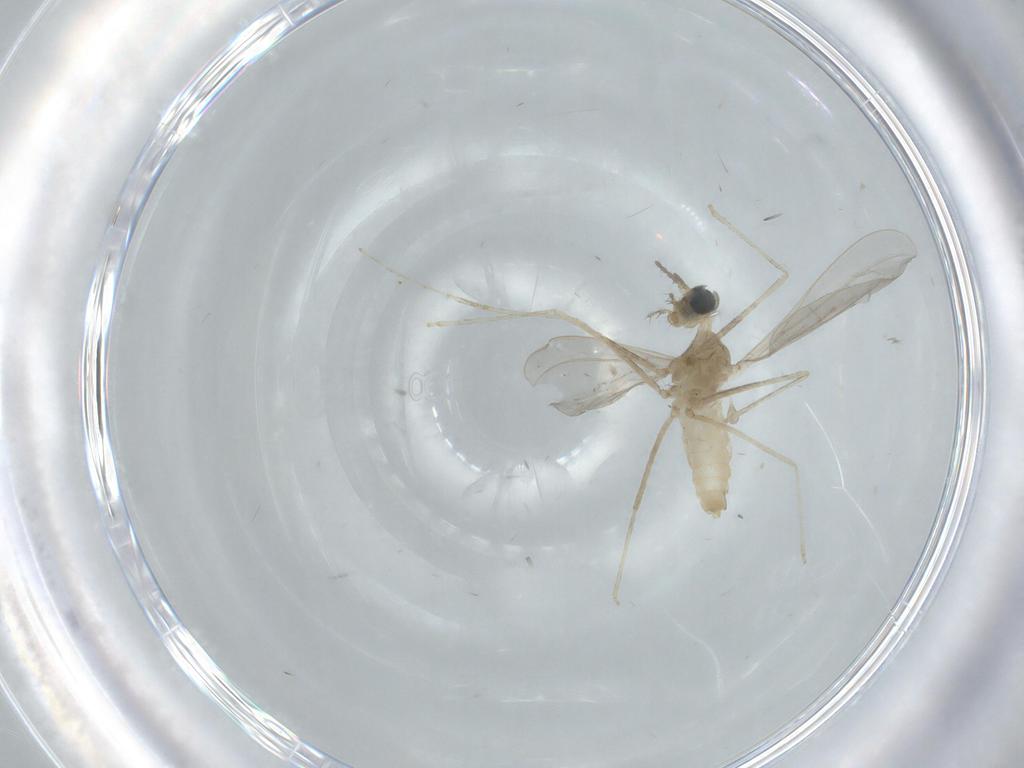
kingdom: Animalia
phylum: Arthropoda
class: Insecta
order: Diptera
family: Cecidomyiidae
